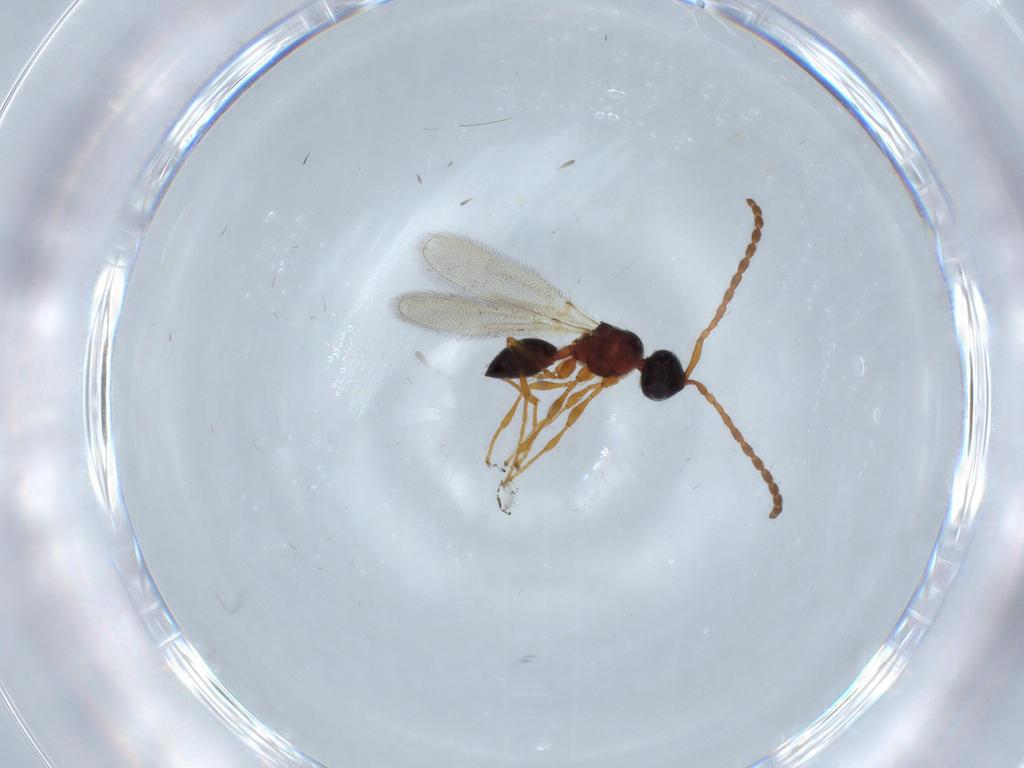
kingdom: Animalia
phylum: Arthropoda
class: Insecta
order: Hymenoptera
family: Diapriidae
